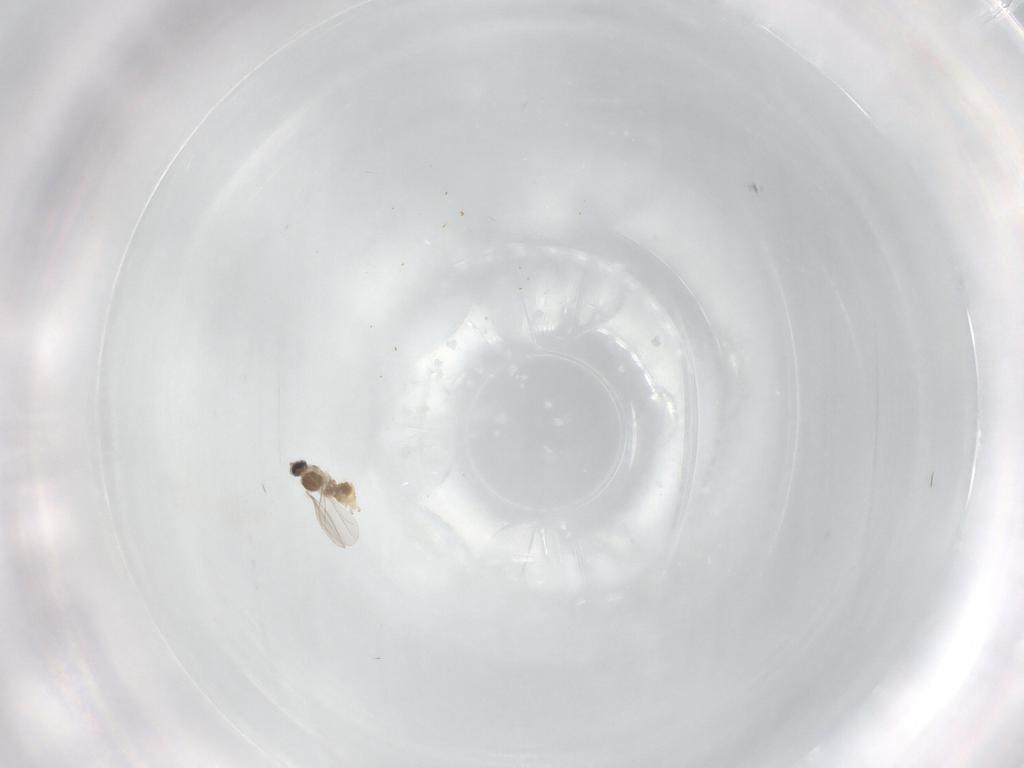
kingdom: Animalia
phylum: Arthropoda
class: Insecta
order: Diptera
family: Cecidomyiidae
